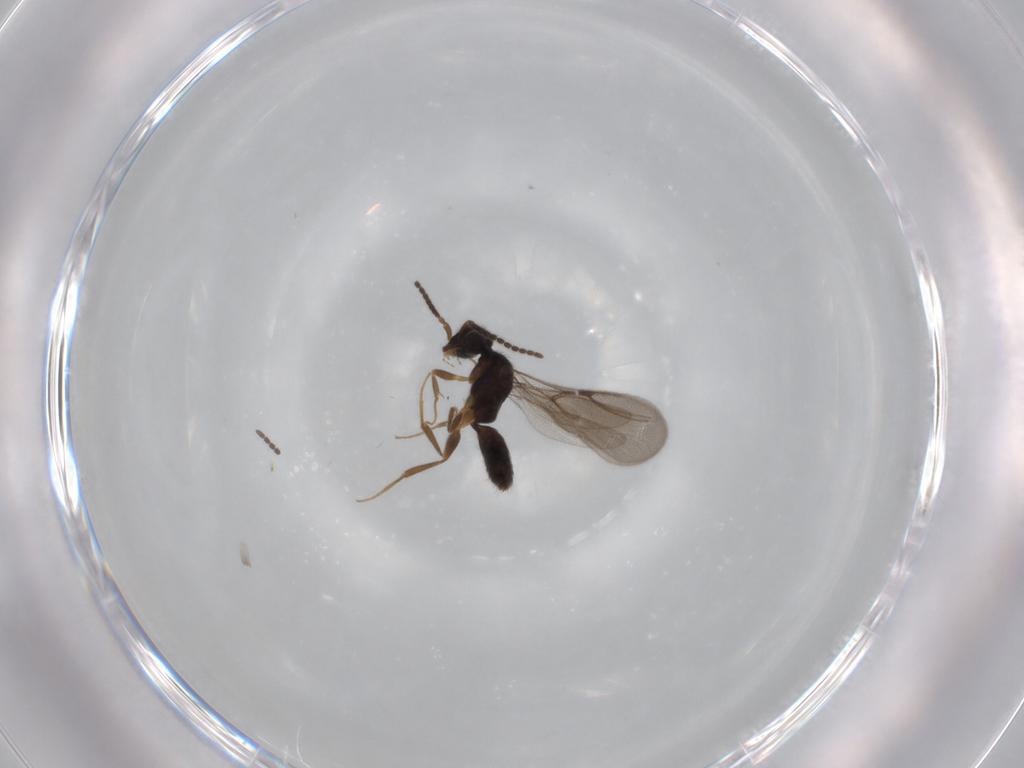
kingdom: Animalia
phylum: Arthropoda
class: Insecta
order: Hymenoptera
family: Bethylidae
